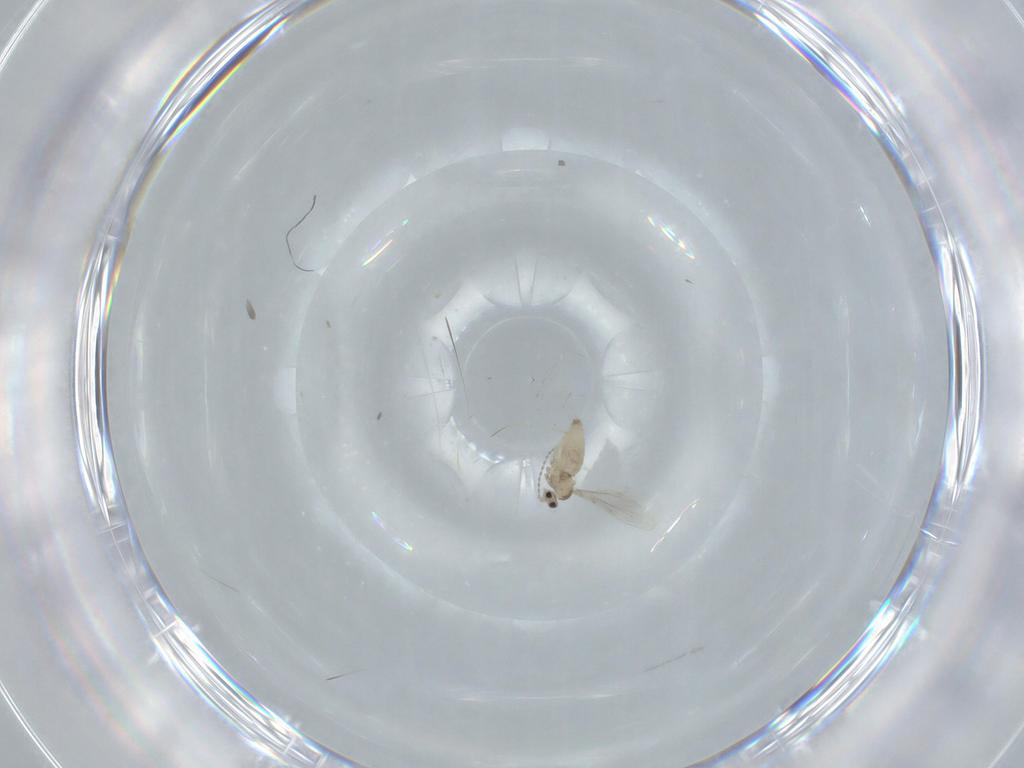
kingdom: Animalia
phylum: Arthropoda
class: Insecta
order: Diptera
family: Cecidomyiidae
